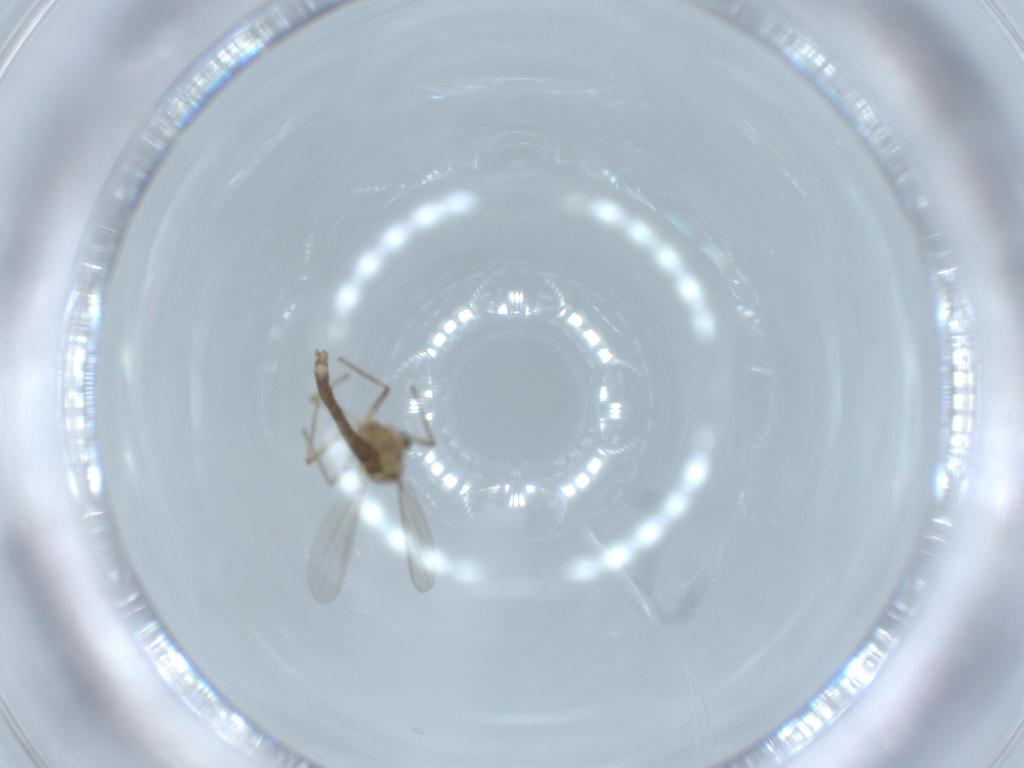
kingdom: Animalia
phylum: Arthropoda
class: Insecta
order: Diptera
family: Chironomidae
